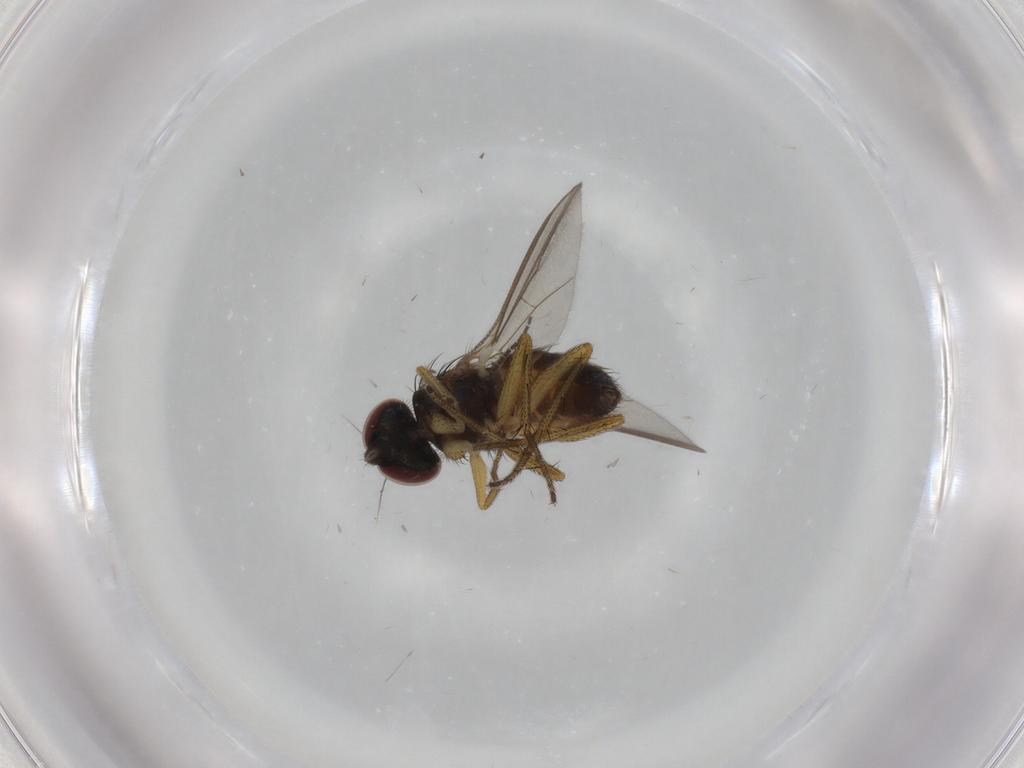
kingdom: Animalia
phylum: Arthropoda
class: Insecta
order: Diptera
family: Sciaridae
